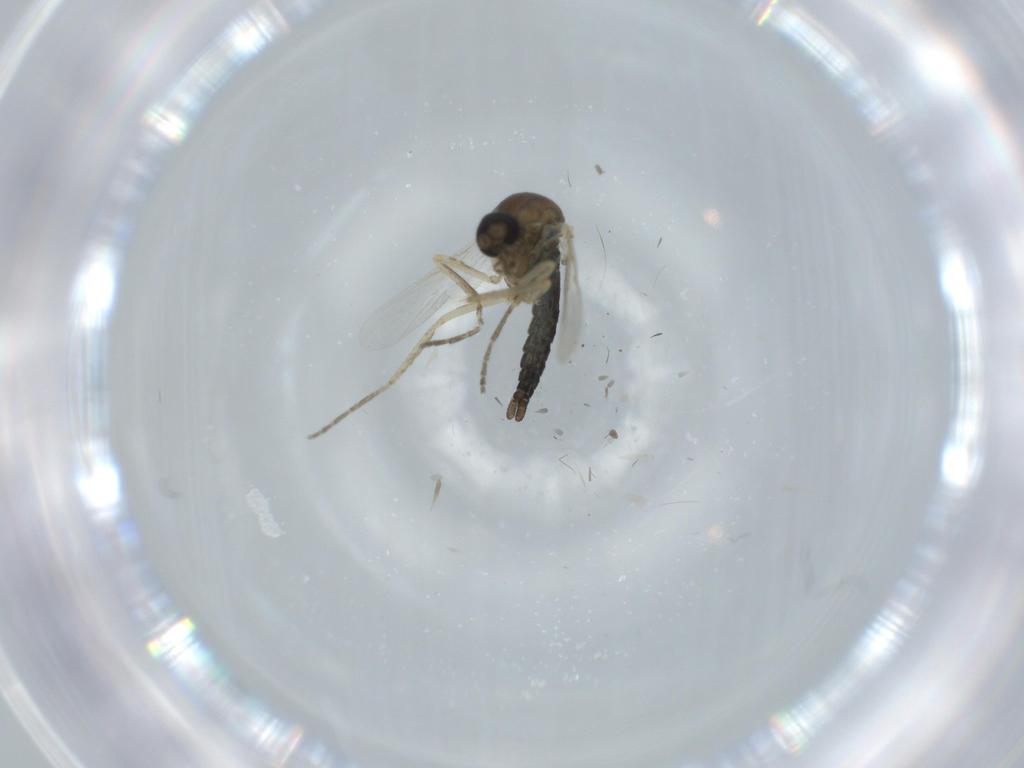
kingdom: Animalia
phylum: Arthropoda
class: Insecta
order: Diptera
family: Ceratopogonidae
